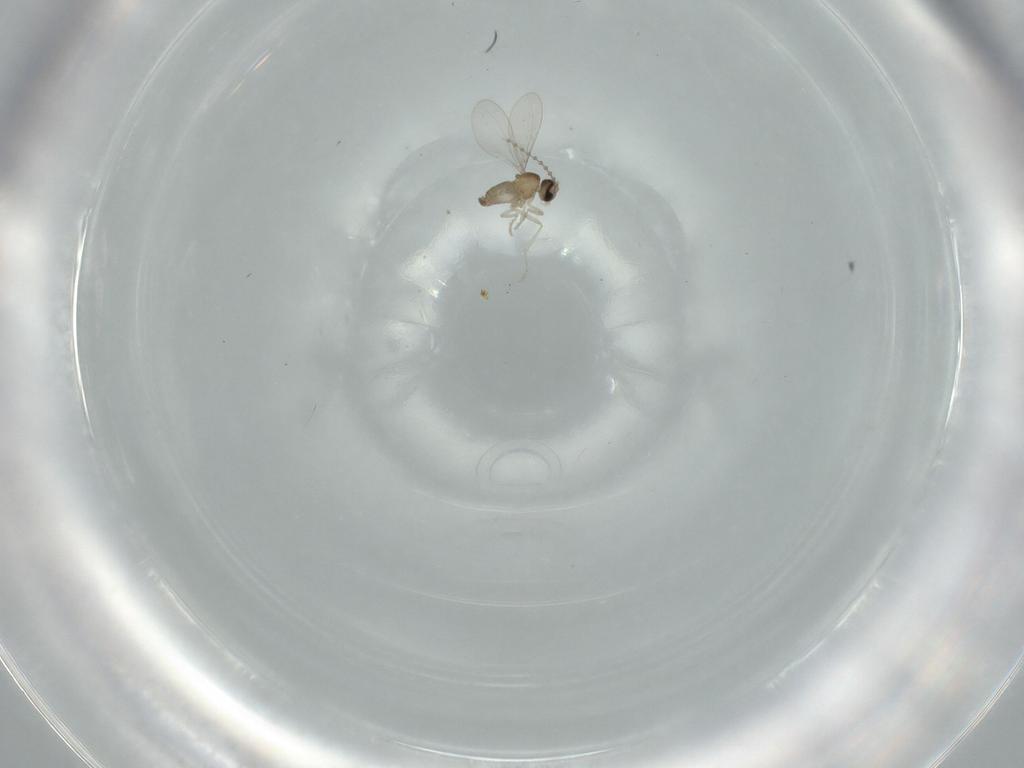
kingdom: Animalia
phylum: Arthropoda
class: Insecta
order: Diptera
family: Cecidomyiidae
